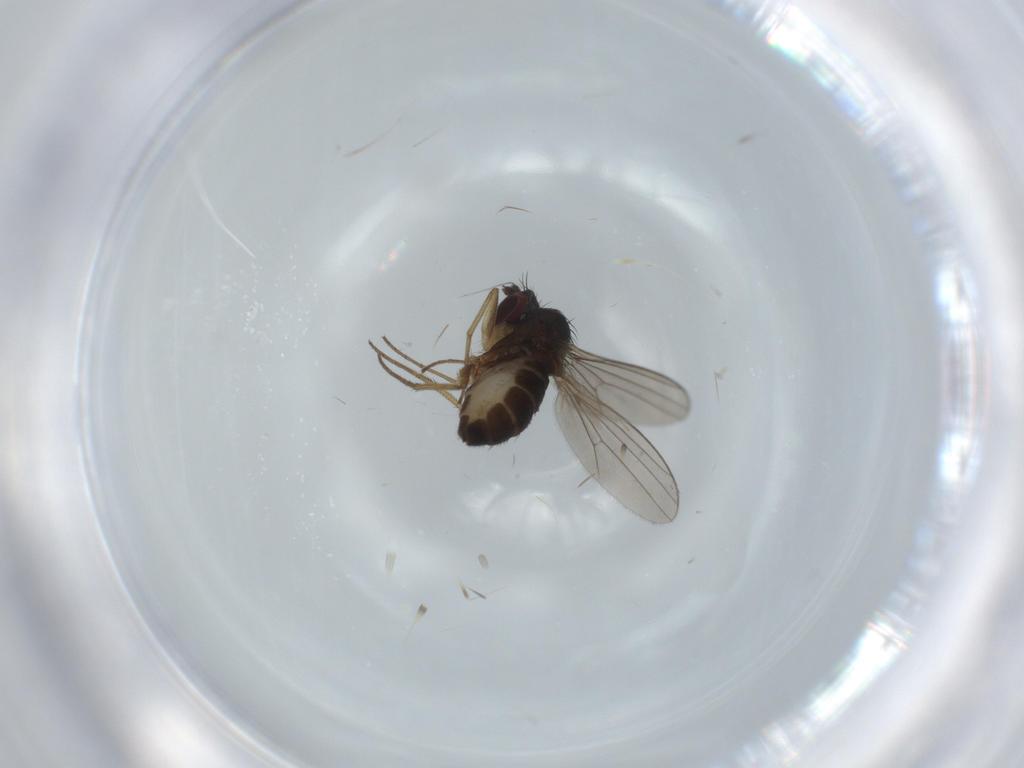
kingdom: Animalia
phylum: Arthropoda
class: Insecta
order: Diptera
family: Dolichopodidae
